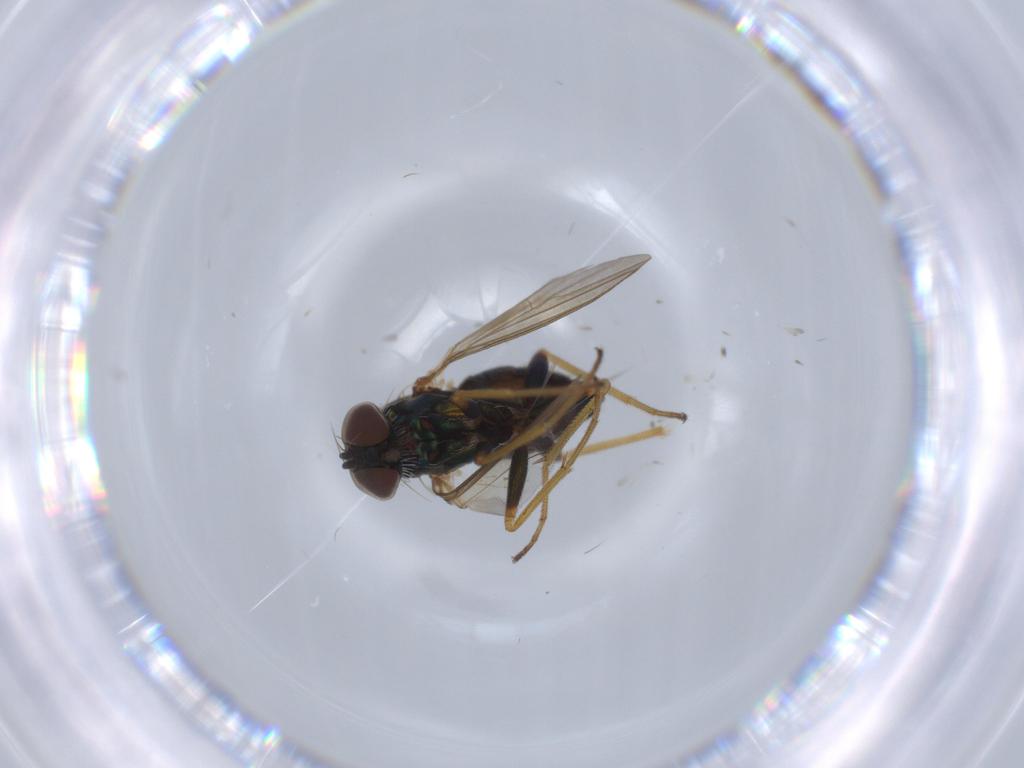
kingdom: Animalia
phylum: Arthropoda
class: Insecta
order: Diptera
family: Dolichopodidae
